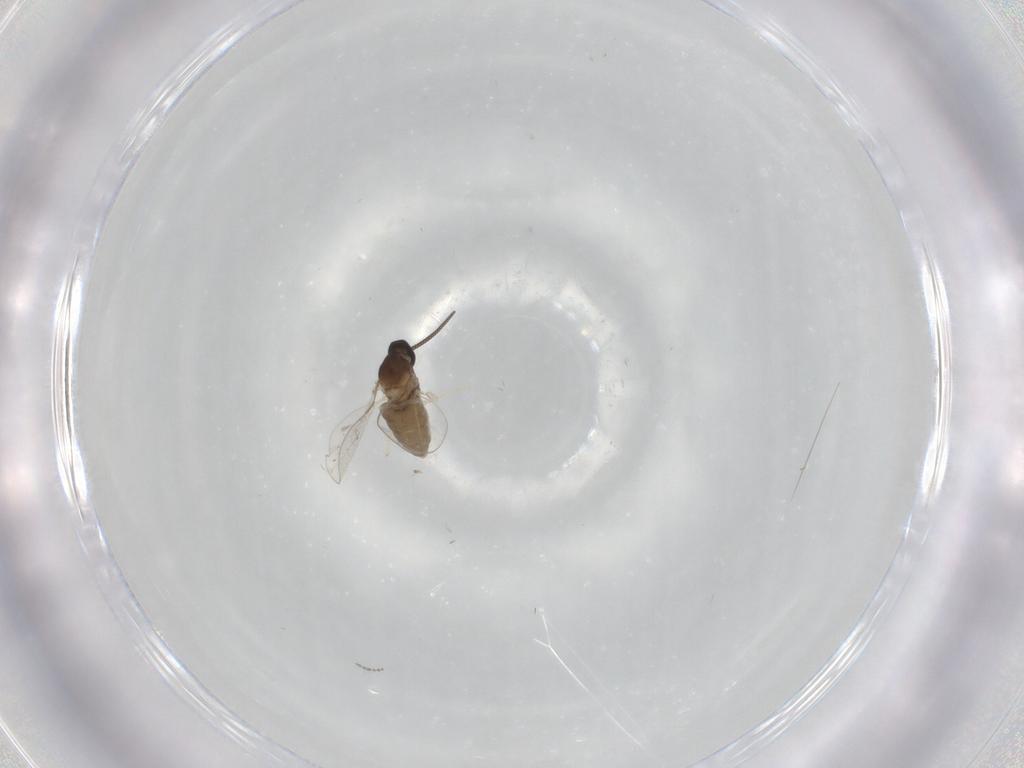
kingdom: Animalia
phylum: Arthropoda
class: Insecta
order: Diptera
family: Cecidomyiidae
